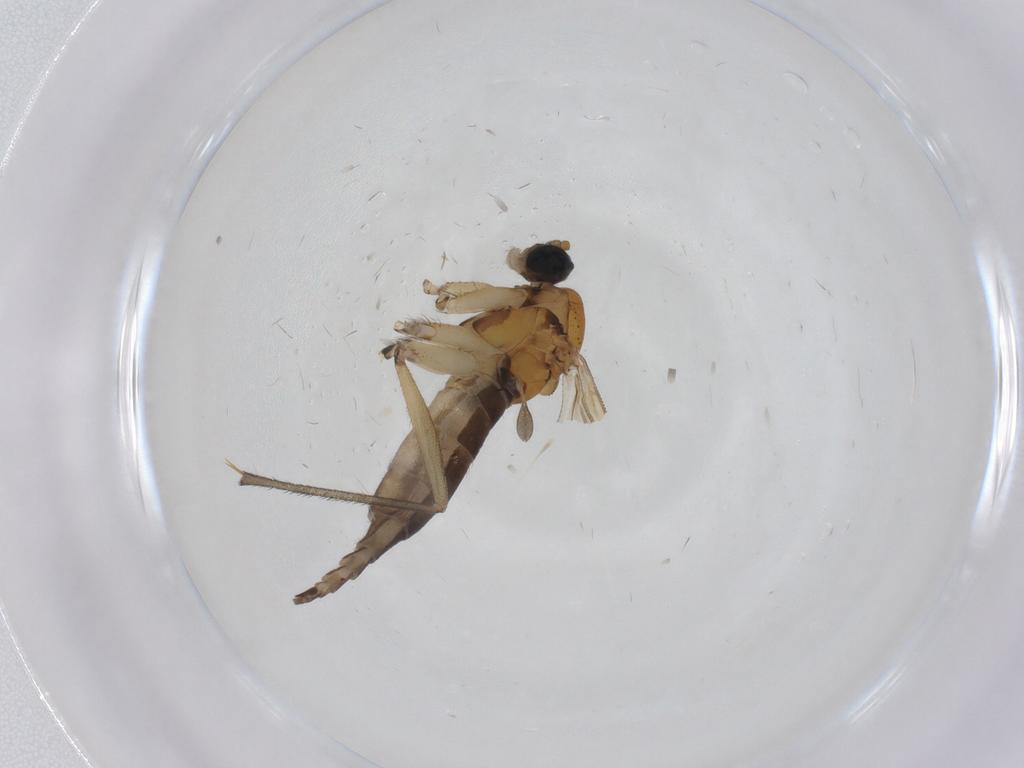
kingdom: Animalia
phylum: Arthropoda
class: Insecta
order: Diptera
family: Sciaridae
